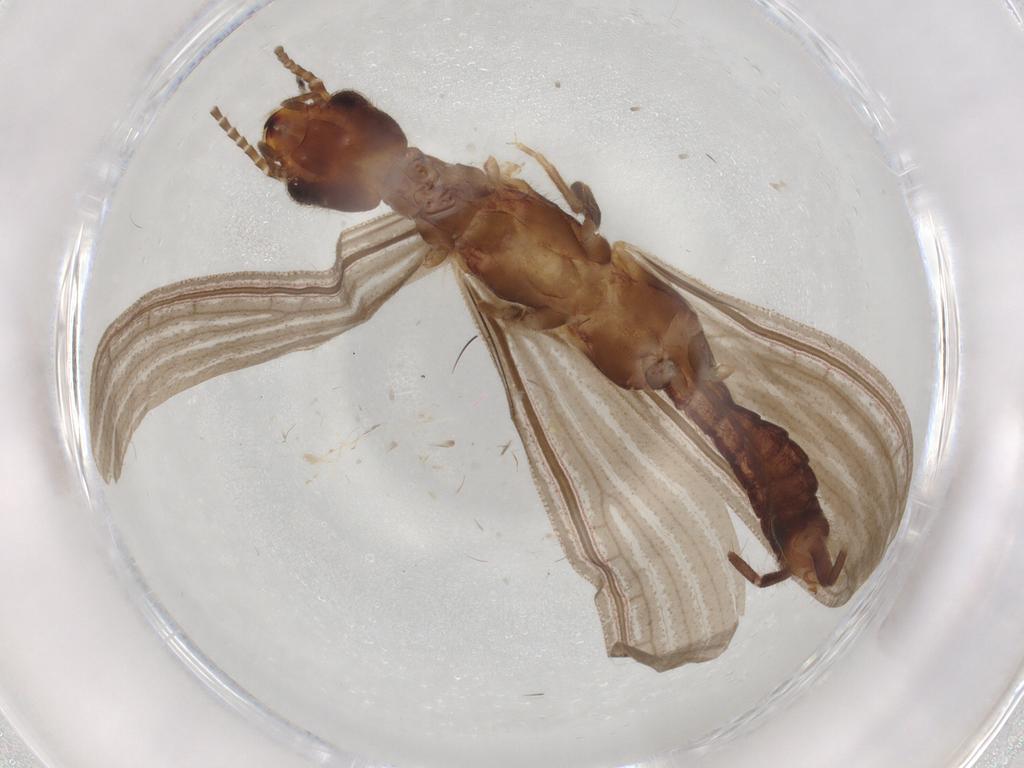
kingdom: Animalia
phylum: Arthropoda
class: Insecta
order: Embioptera
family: Oligotomidae
